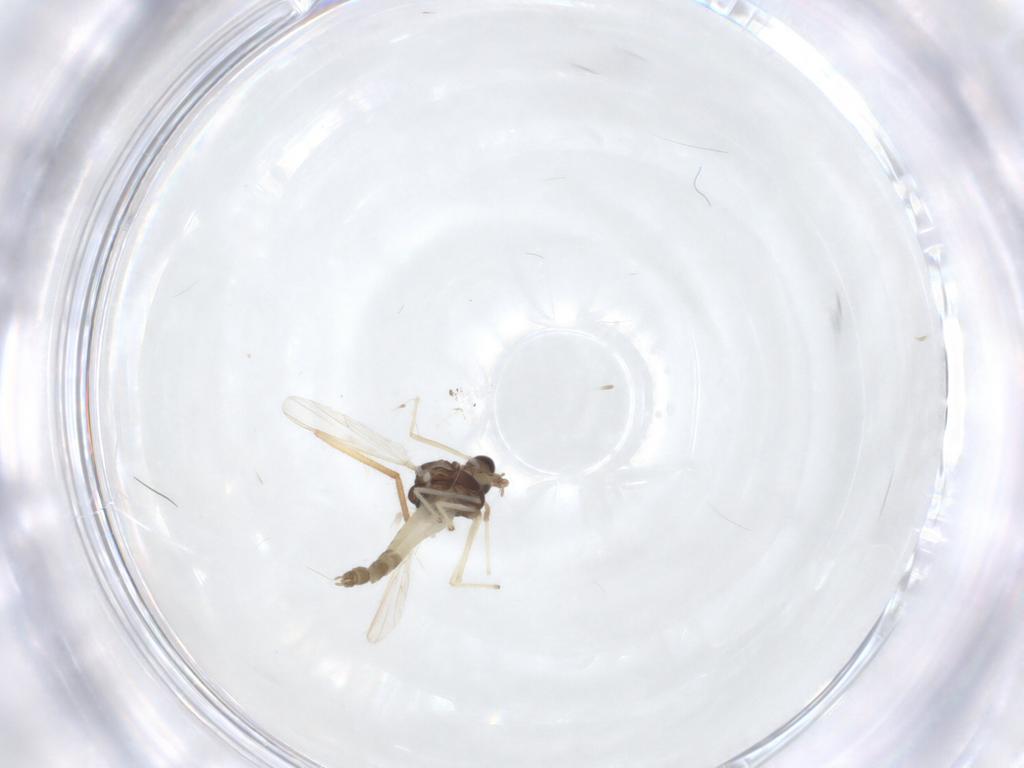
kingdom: Animalia
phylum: Arthropoda
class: Insecta
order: Diptera
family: Chironomidae
